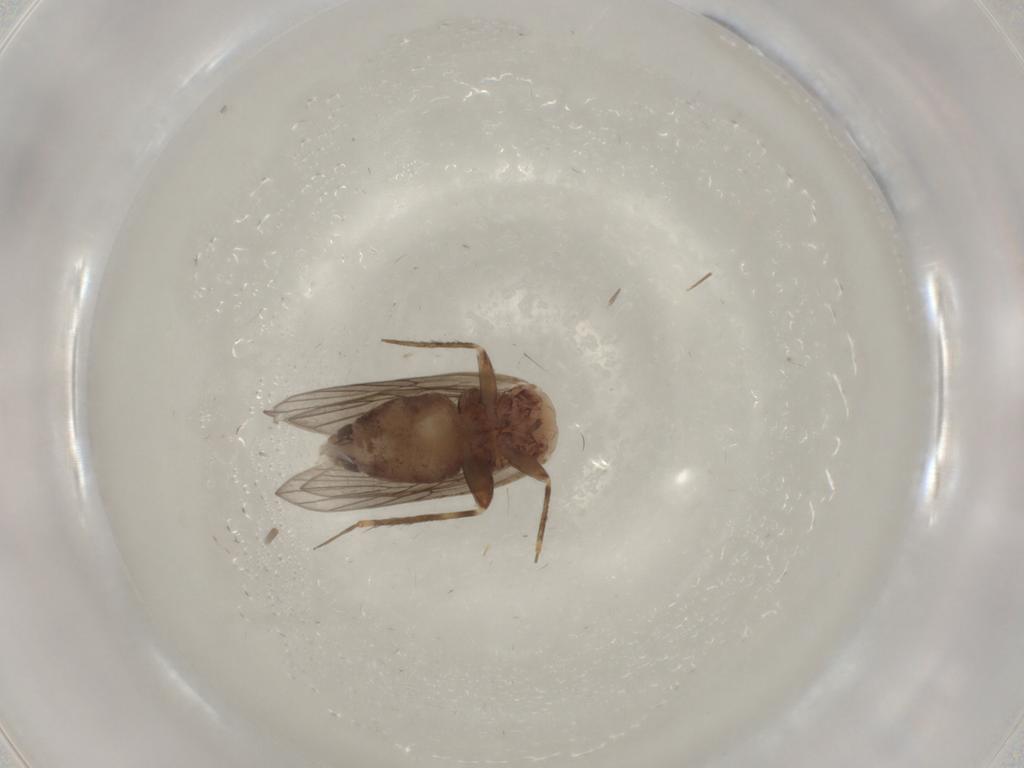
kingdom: Animalia
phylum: Arthropoda
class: Insecta
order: Psocodea
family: Lepidopsocidae
